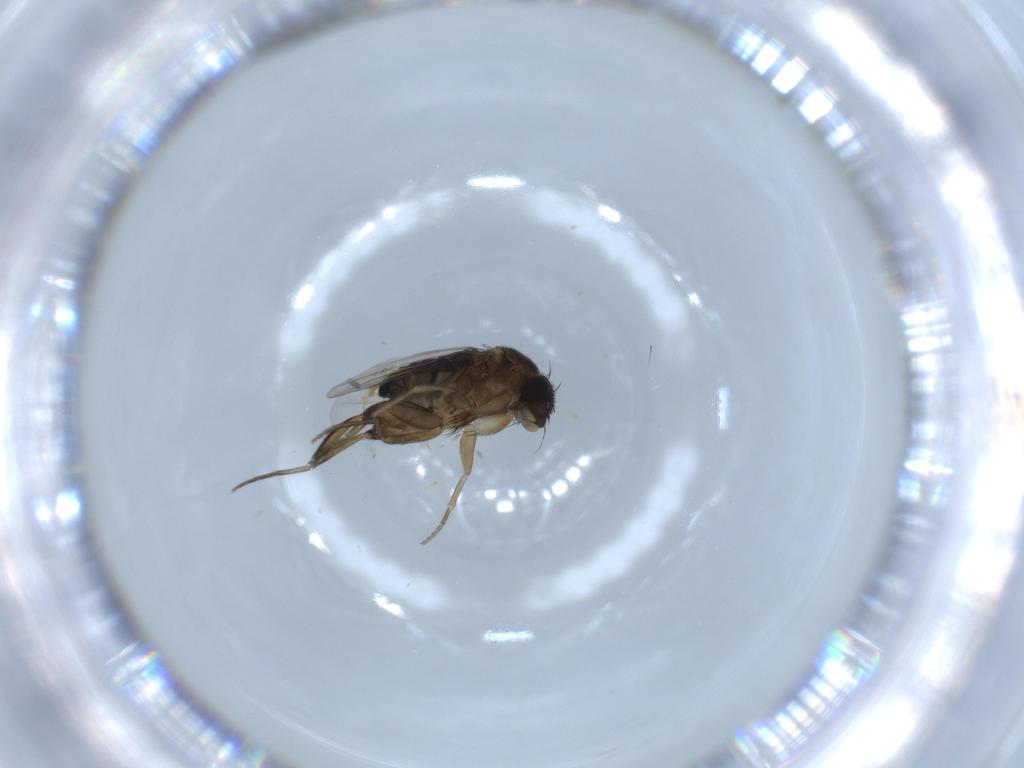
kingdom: Animalia
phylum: Arthropoda
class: Insecta
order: Diptera
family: Phoridae
